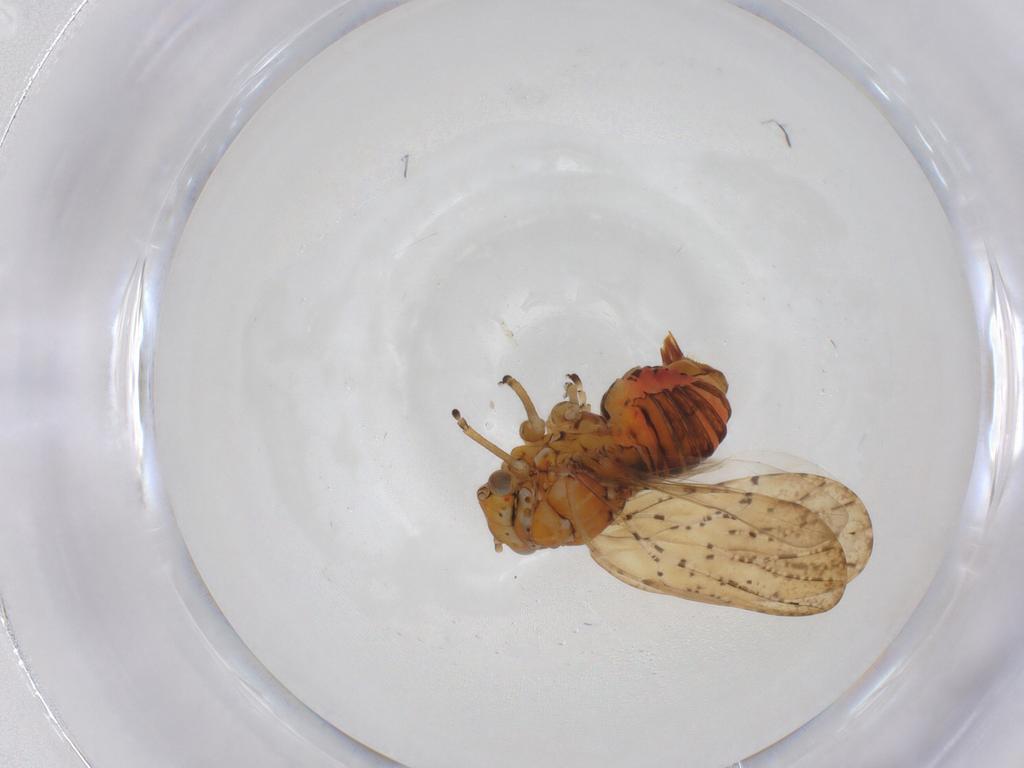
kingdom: Animalia
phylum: Arthropoda
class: Insecta
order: Hemiptera
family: Liviidae
